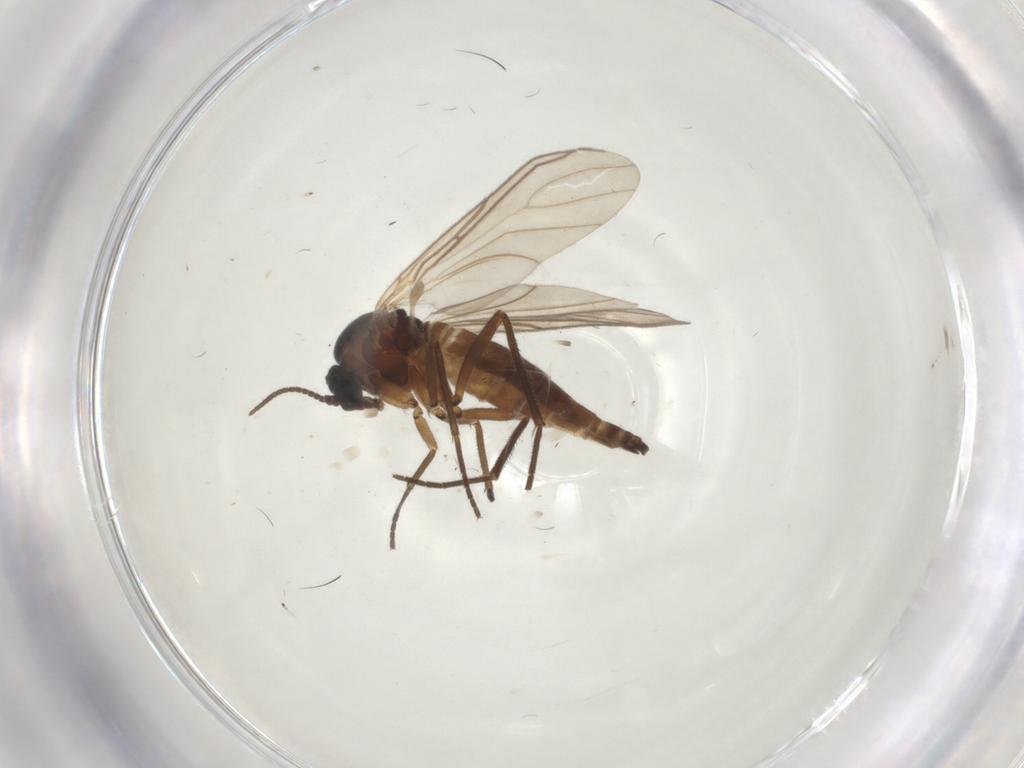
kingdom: Animalia
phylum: Arthropoda
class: Insecta
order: Diptera
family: Sciaridae
